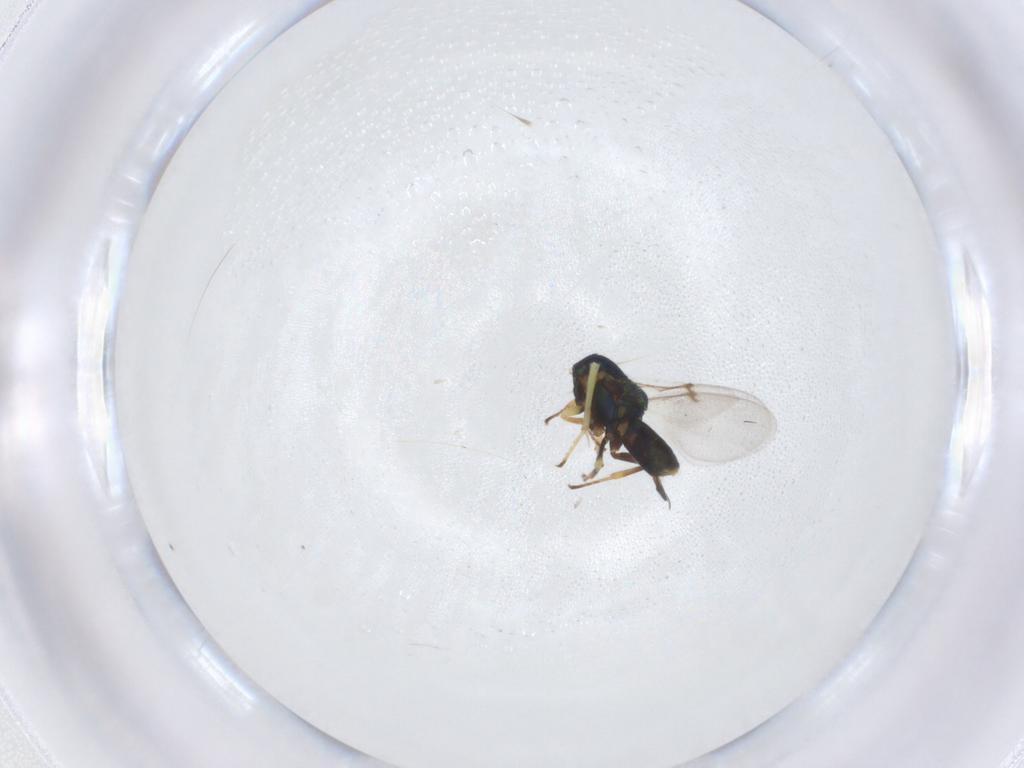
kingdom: Animalia
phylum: Arthropoda
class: Insecta
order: Hymenoptera
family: Encyrtidae
